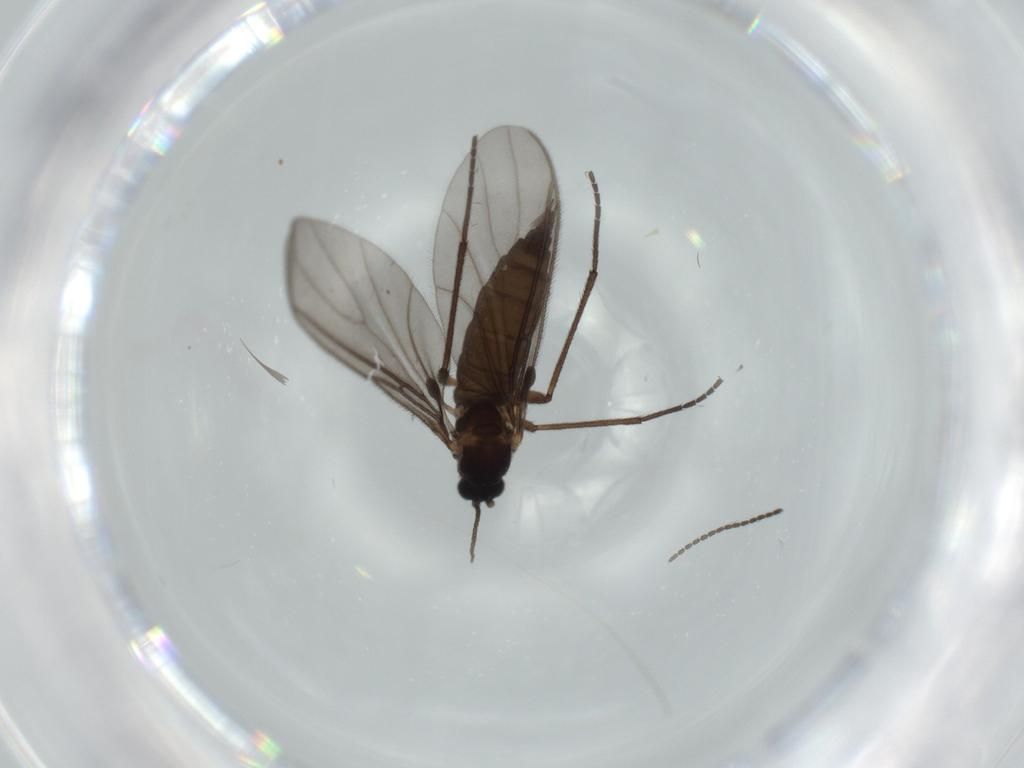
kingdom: Animalia
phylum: Arthropoda
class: Insecta
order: Diptera
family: Sciaridae
